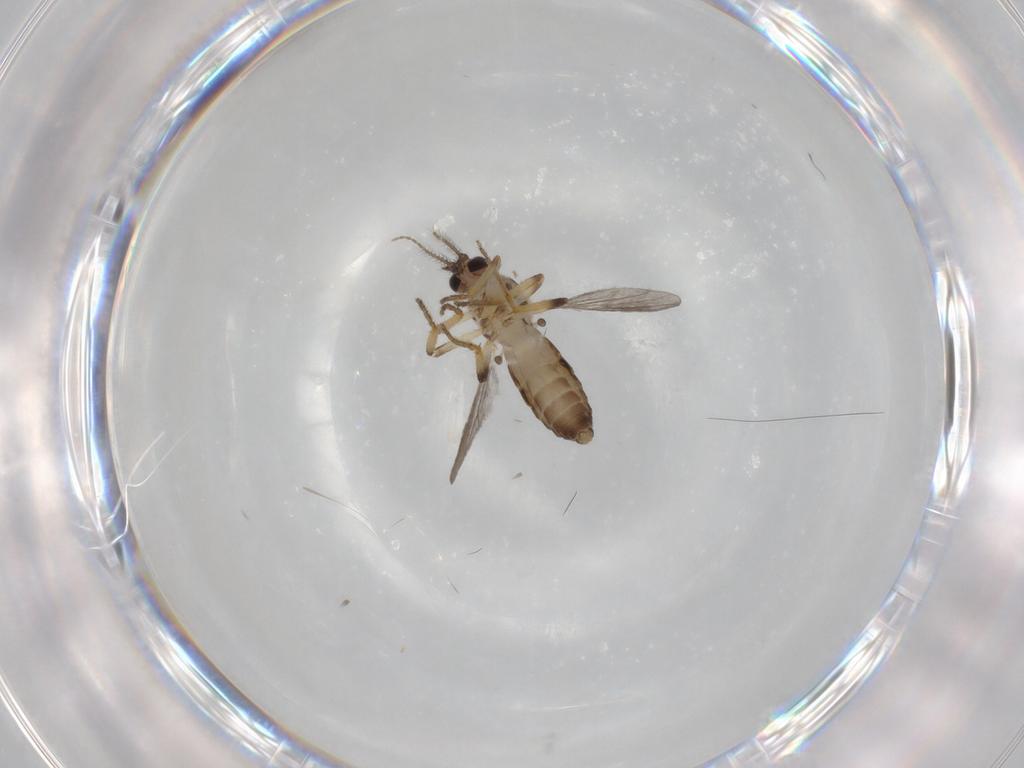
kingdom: Animalia
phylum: Arthropoda
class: Insecta
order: Diptera
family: Ceratopogonidae
